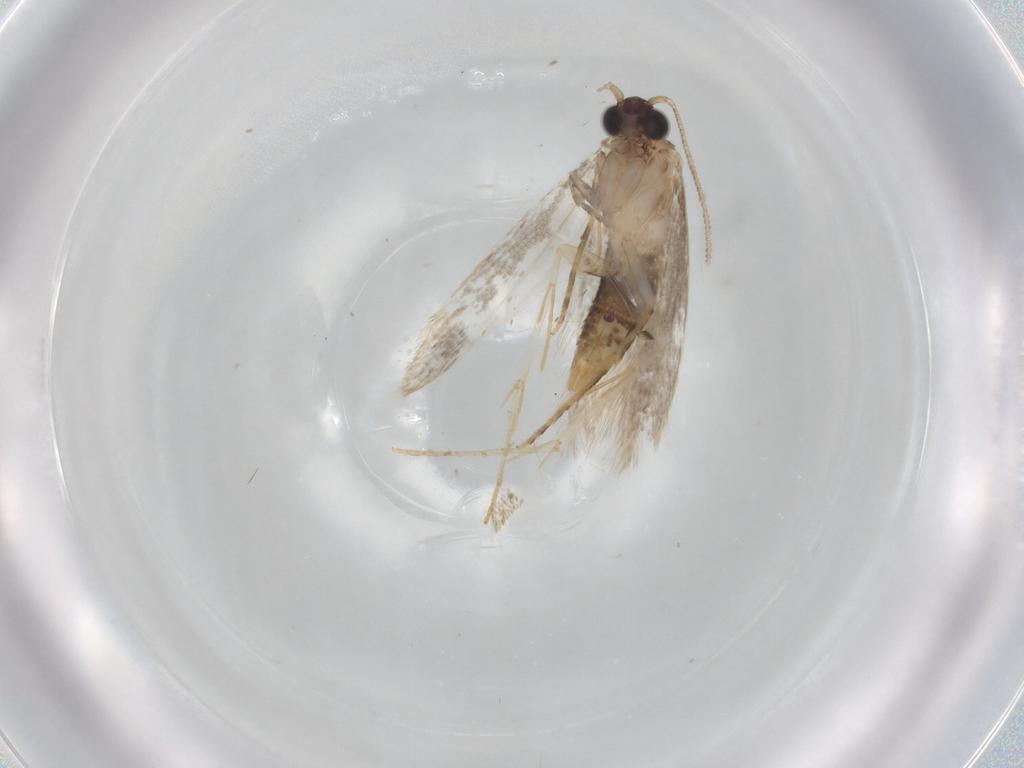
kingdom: Animalia
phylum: Arthropoda
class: Insecta
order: Lepidoptera
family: Tineidae
